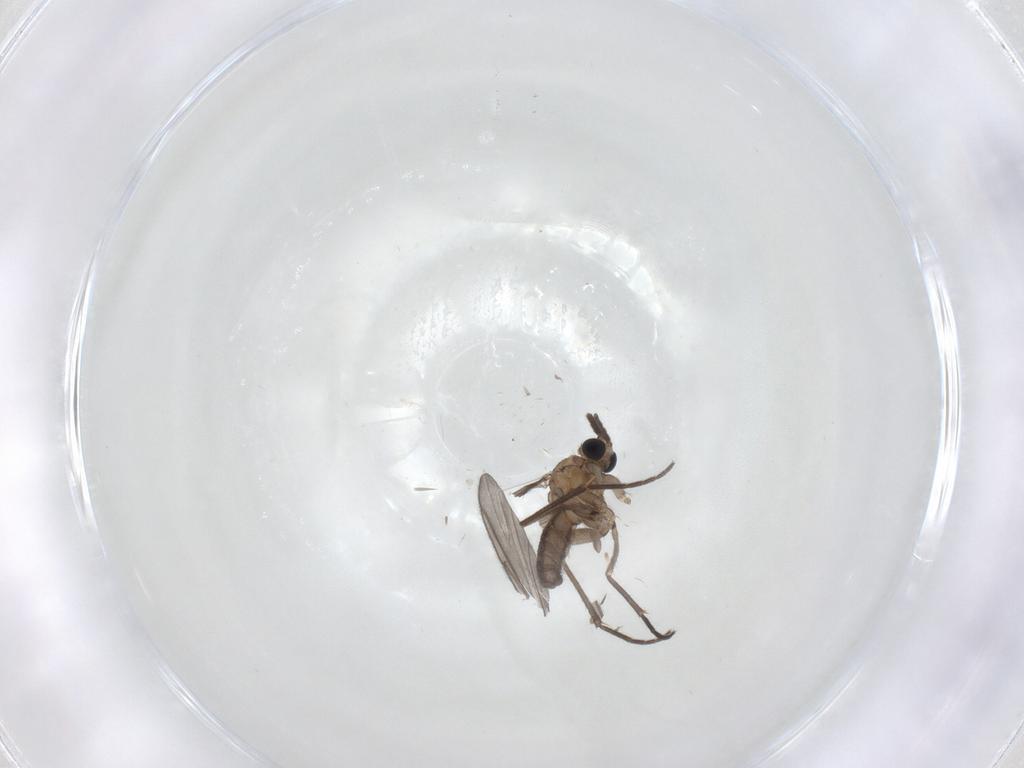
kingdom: Animalia
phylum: Arthropoda
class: Insecta
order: Diptera
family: Sciaridae
